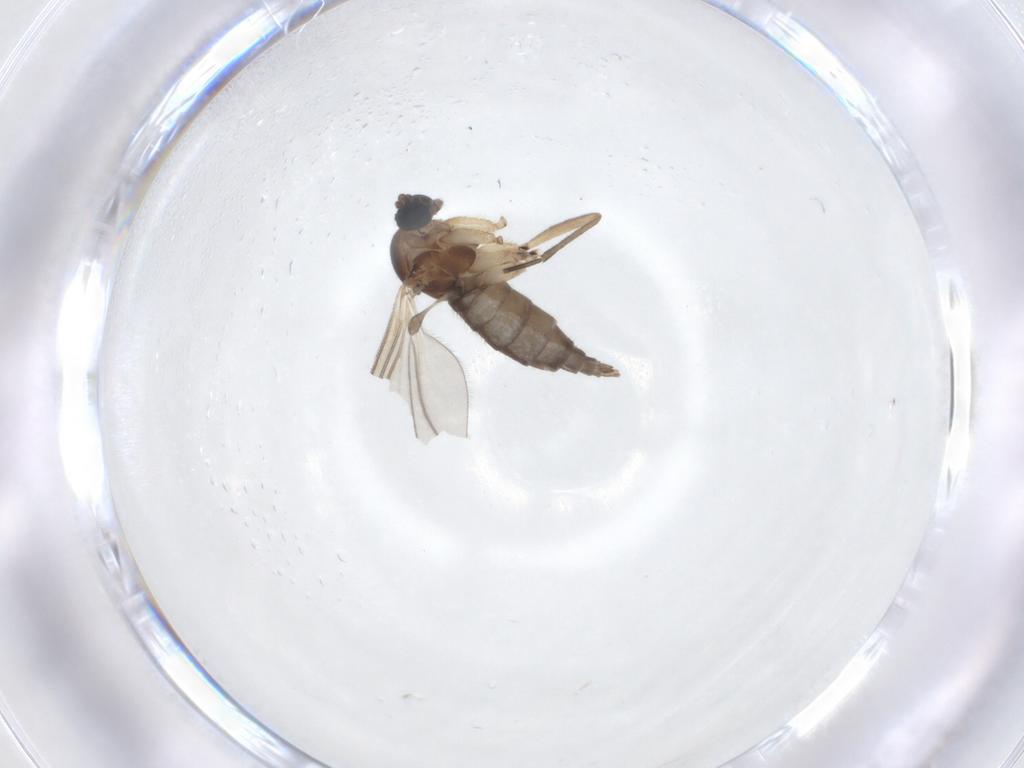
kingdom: Animalia
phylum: Arthropoda
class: Insecta
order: Diptera
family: Sciaridae
